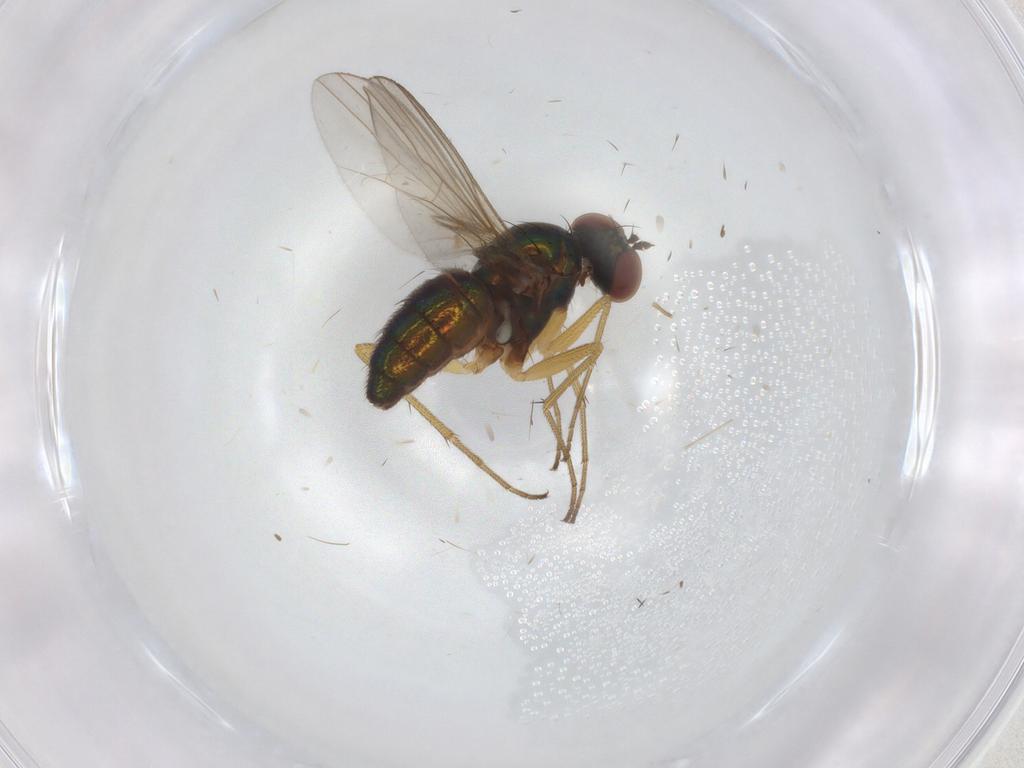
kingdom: Animalia
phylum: Arthropoda
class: Insecta
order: Diptera
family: Dolichopodidae
